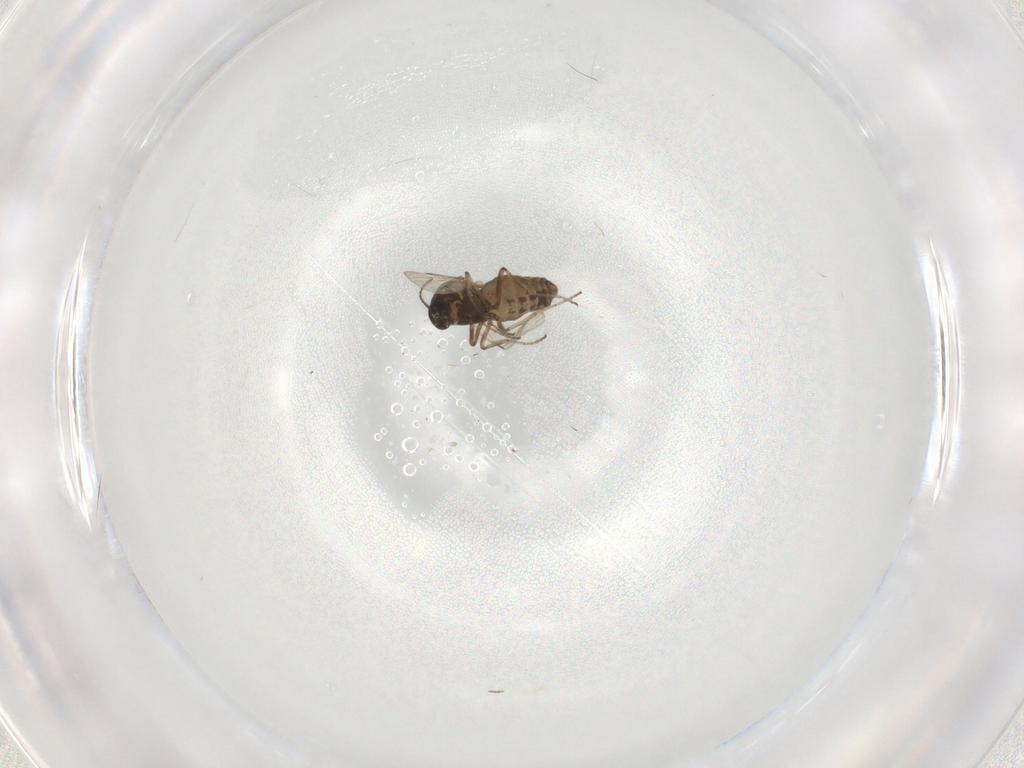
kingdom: Animalia
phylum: Arthropoda
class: Insecta
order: Diptera
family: Ceratopogonidae
